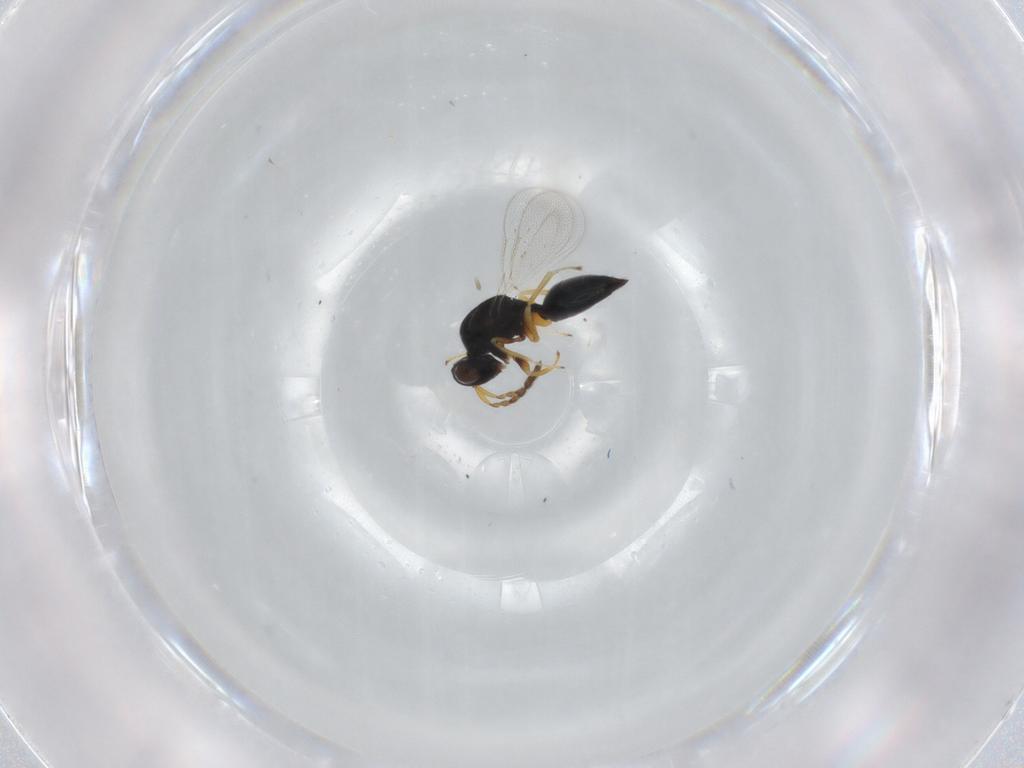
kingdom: Animalia
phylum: Arthropoda
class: Insecta
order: Hymenoptera
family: Eulophidae
